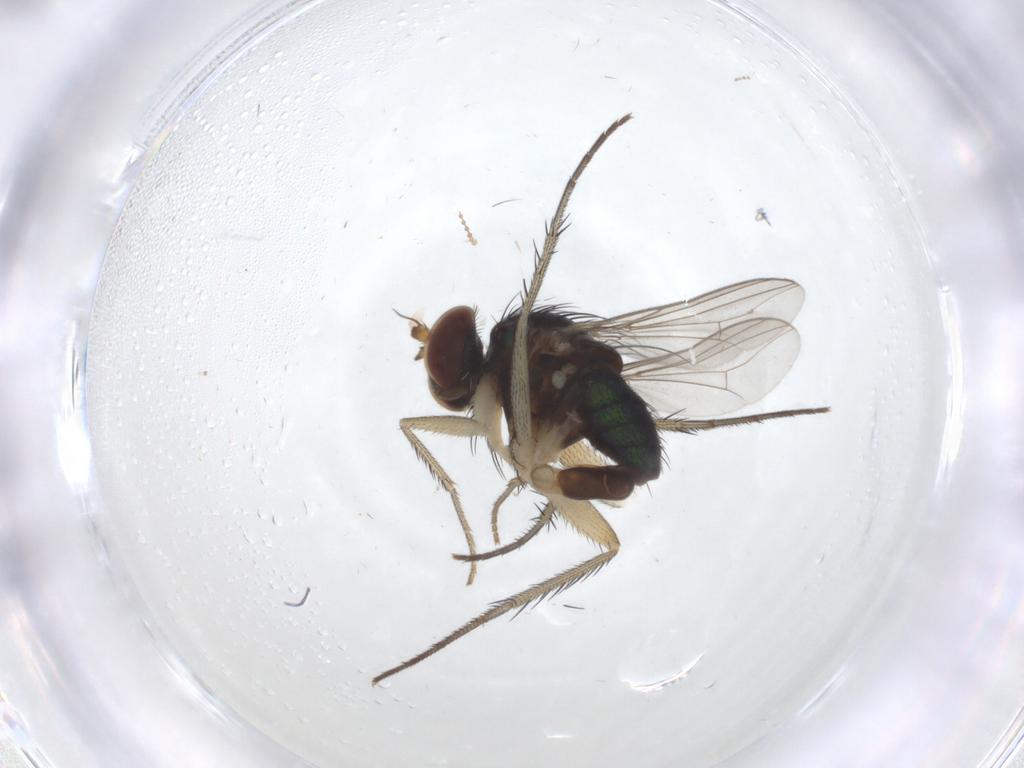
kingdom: Animalia
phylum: Arthropoda
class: Insecta
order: Diptera
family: Dolichopodidae
